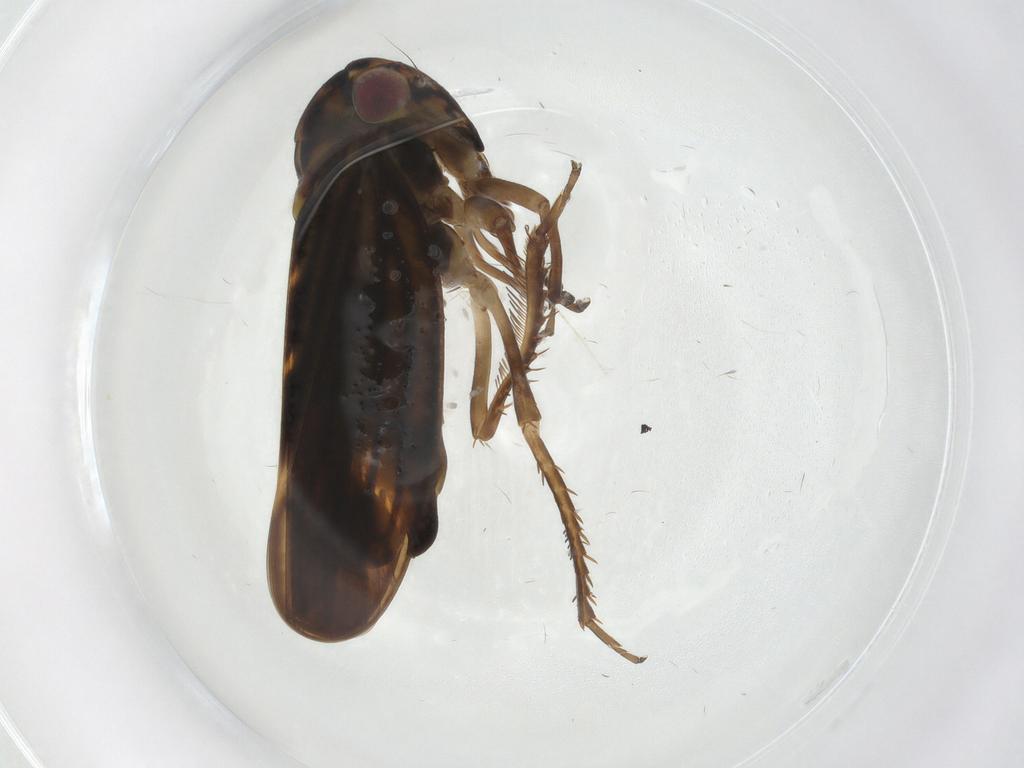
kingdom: Animalia
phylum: Arthropoda
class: Insecta
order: Hemiptera
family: Cicadellidae
